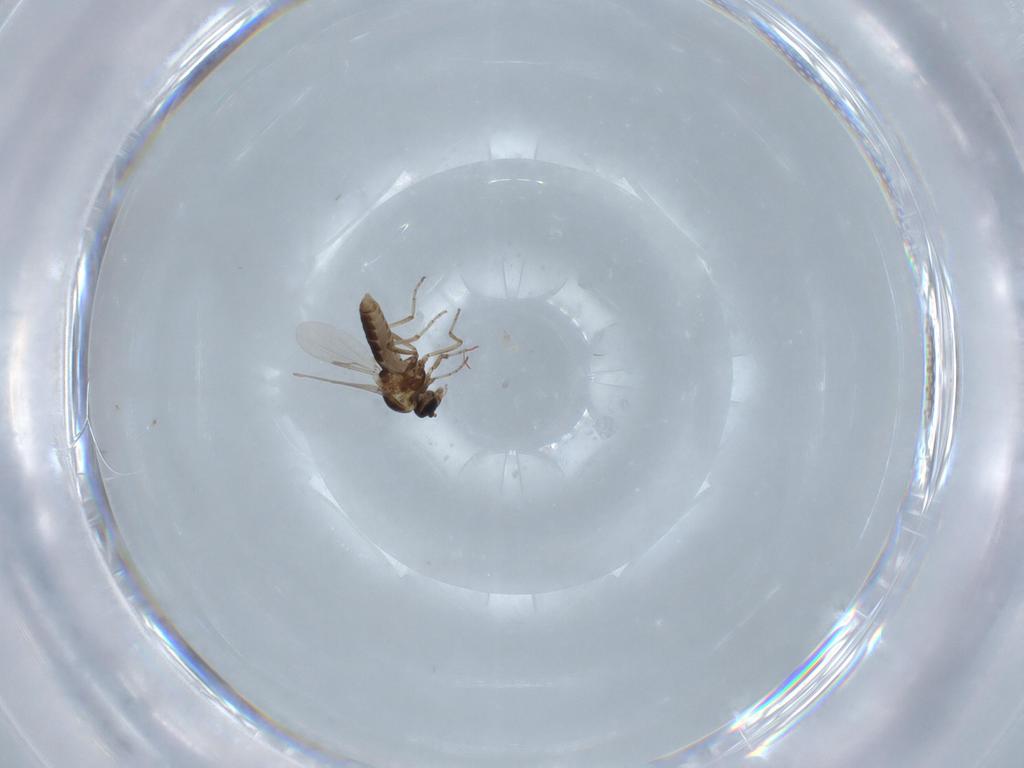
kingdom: Animalia
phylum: Arthropoda
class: Insecta
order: Diptera
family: Ceratopogonidae
